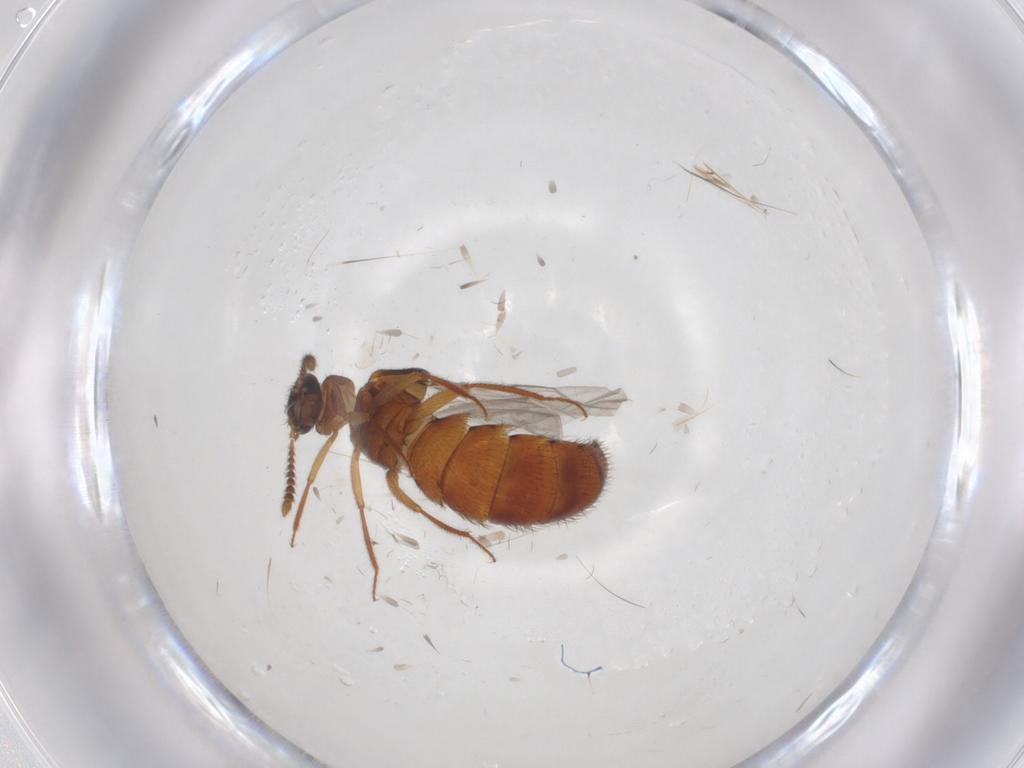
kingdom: Animalia
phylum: Arthropoda
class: Insecta
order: Coleoptera
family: Staphylinidae
